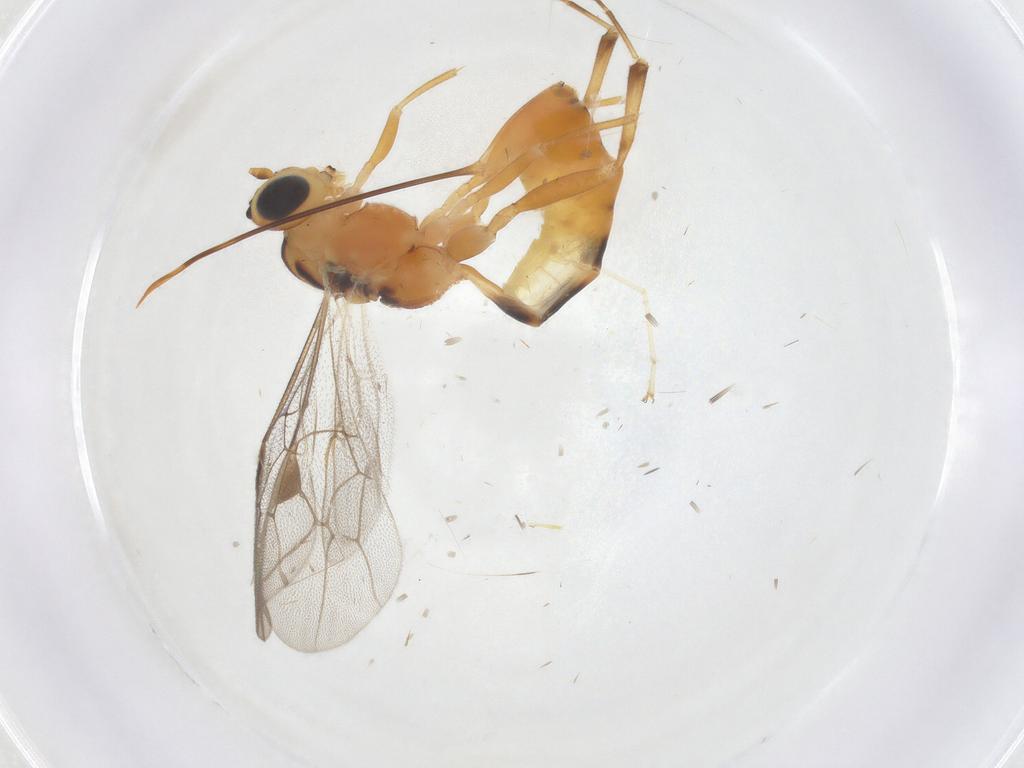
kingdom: Animalia
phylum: Arthropoda
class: Insecta
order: Hymenoptera
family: Ichneumonidae
